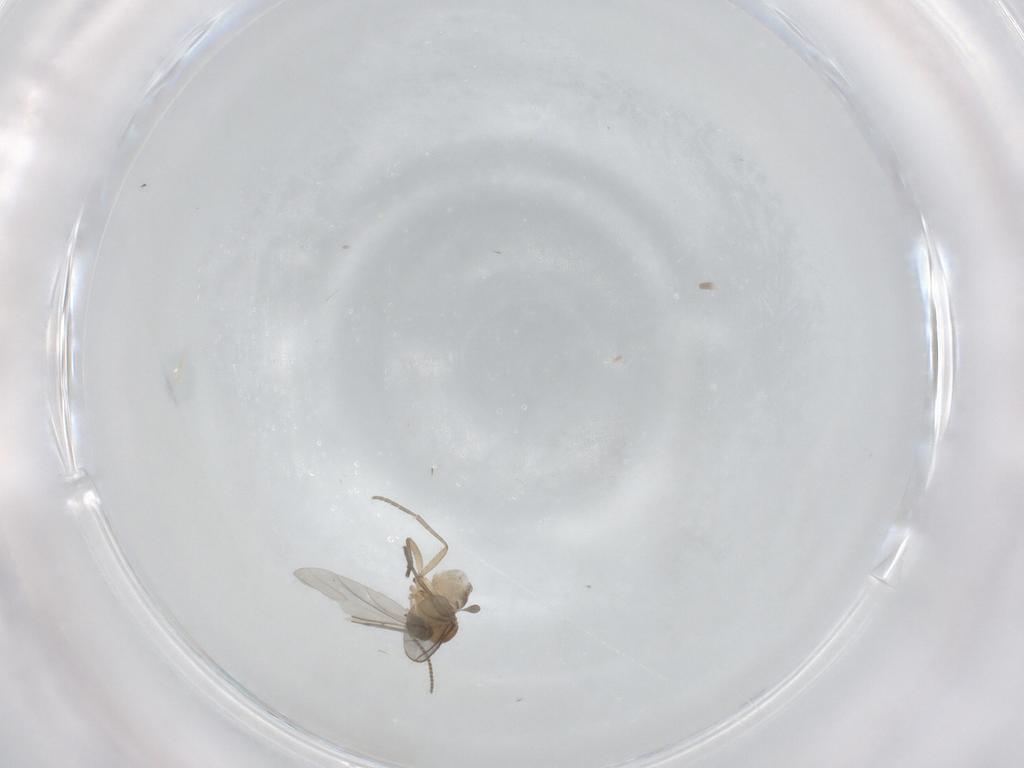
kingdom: Animalia
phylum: Arthropoda
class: Insecta
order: Diptera
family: Sciaridae
